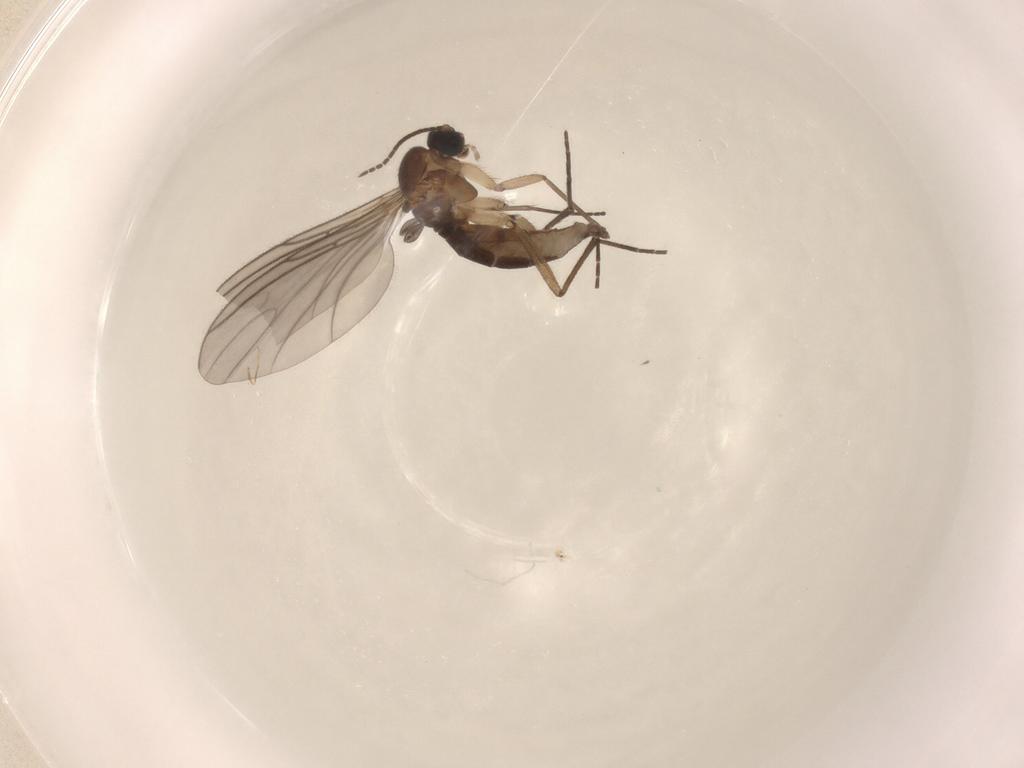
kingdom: Animalia
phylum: Arthropoda
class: Insecta
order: Diptera
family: Sciaridae
